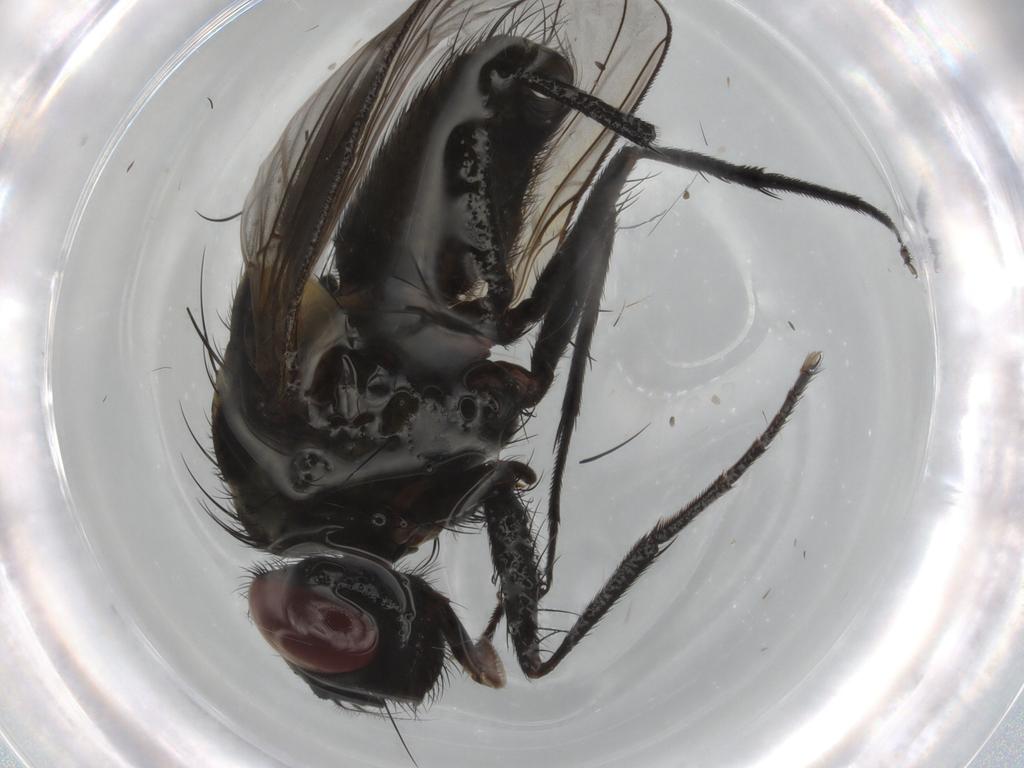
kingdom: Animalia
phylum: Arthropoda
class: Insecta
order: Diptera
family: Muscidae
